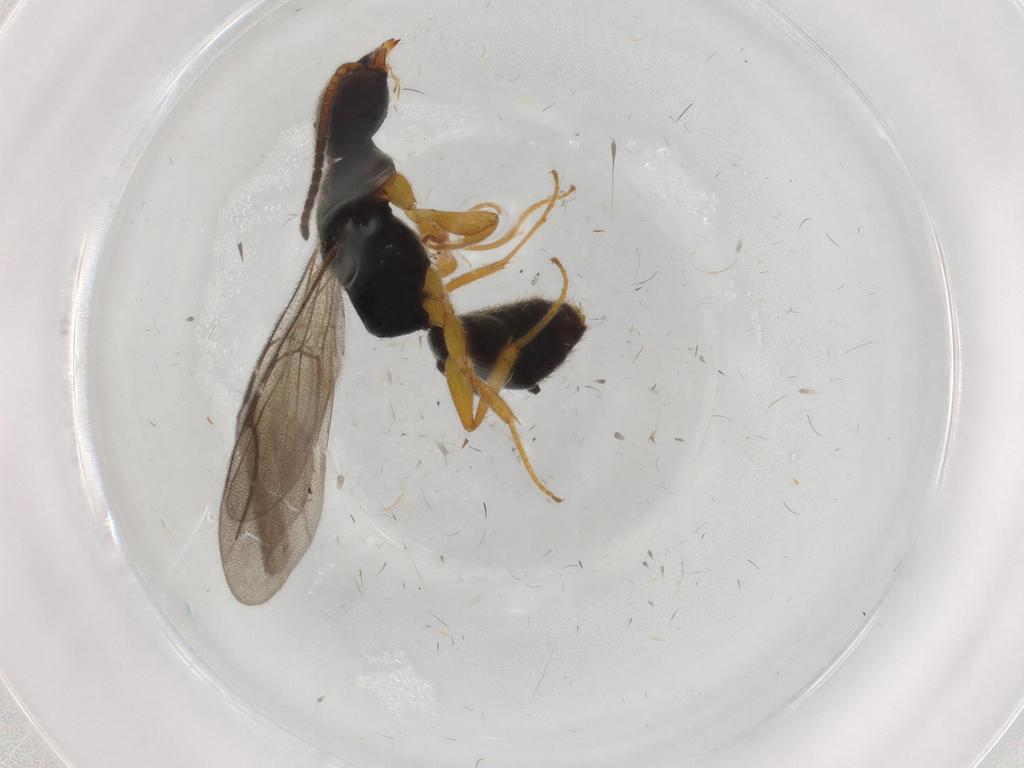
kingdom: Animalia
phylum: Arthropoda
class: Insecta
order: Hymenoptera
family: Bethylidae
